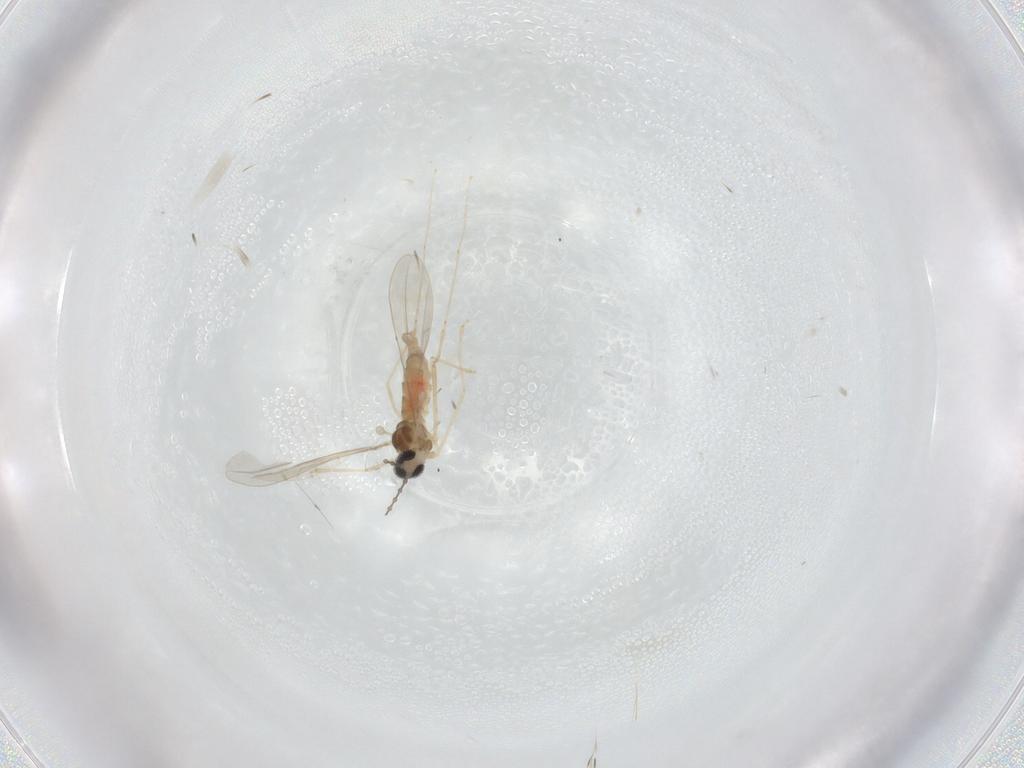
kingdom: Animalia
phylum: Arthropoda
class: Insecta
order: Diptera
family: Cecidomyiidae
